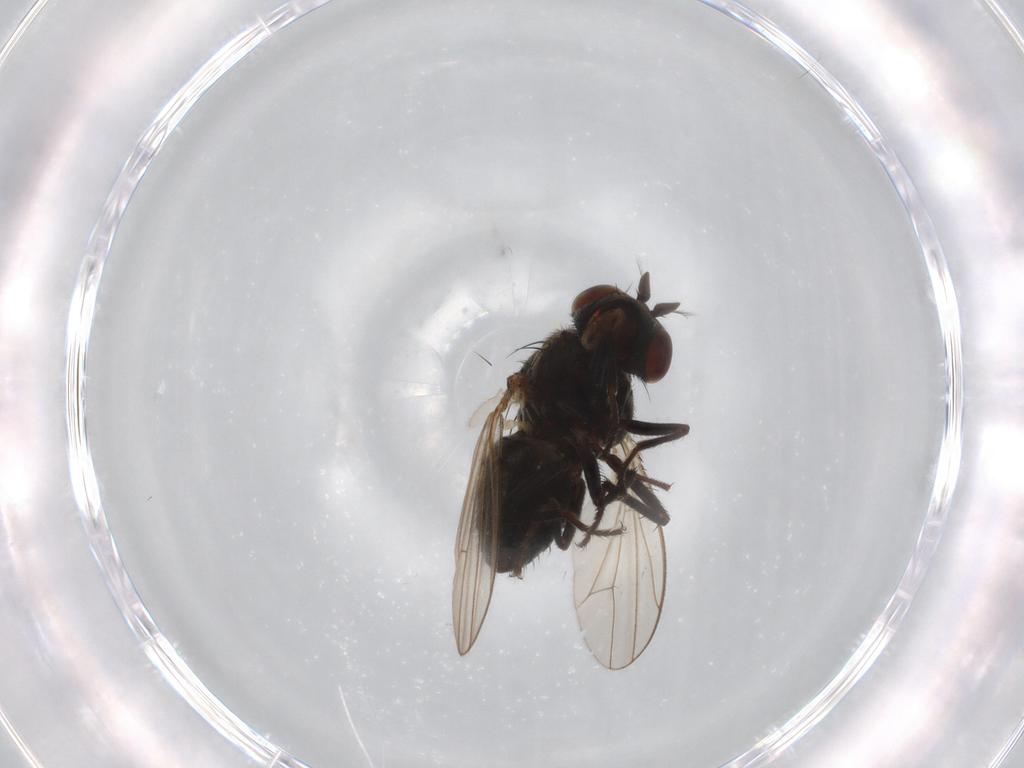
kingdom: Animalia
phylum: Arthropoda
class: Insecta
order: Diptera
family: Ephydridae
